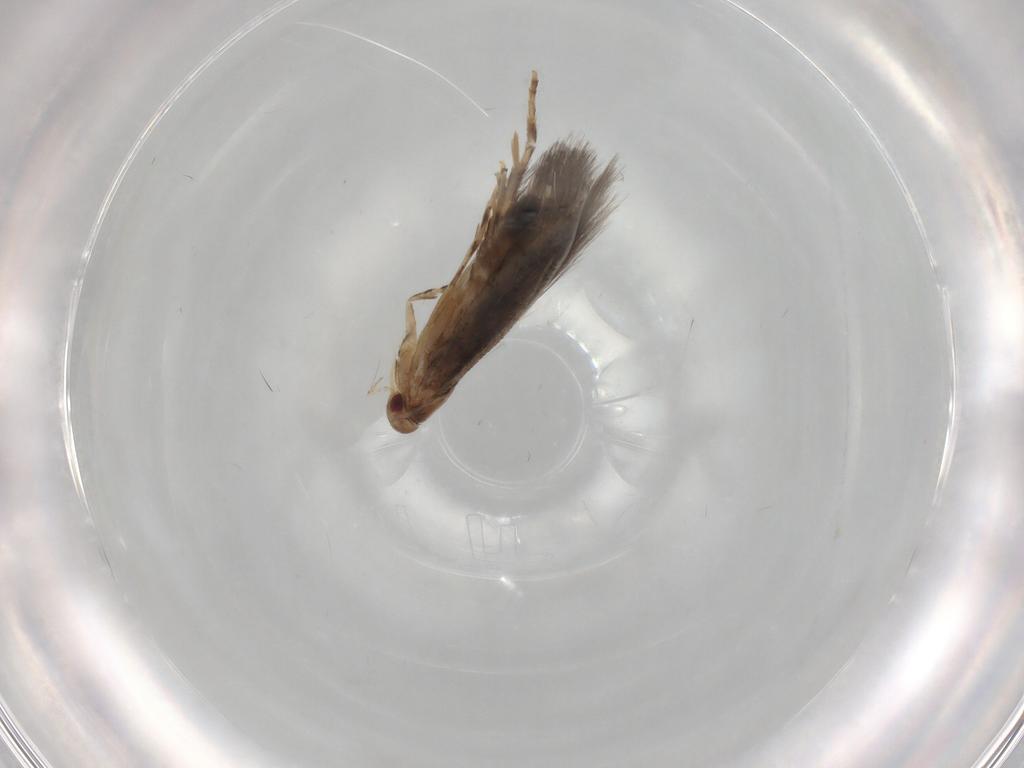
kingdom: Animalia
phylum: Arthropoda
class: Insecta
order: Lepidoptera
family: Elachistidae
